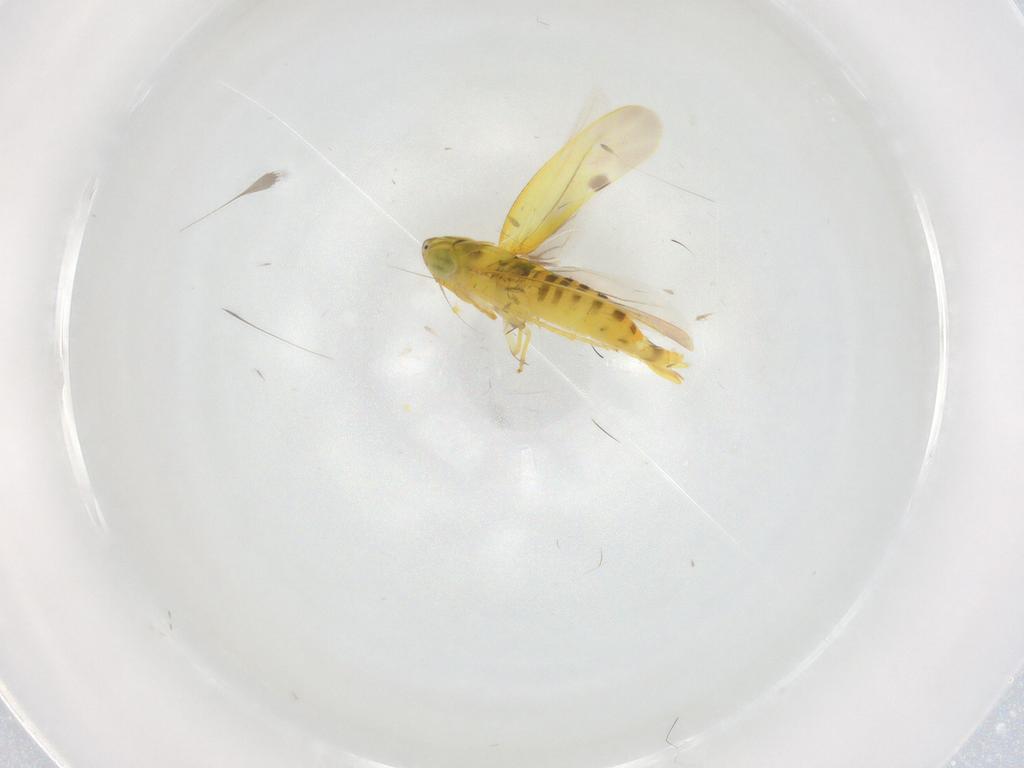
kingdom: Animalia
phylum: Arthropoda
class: Insecta
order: Hemiptera
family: Cicadellidae
